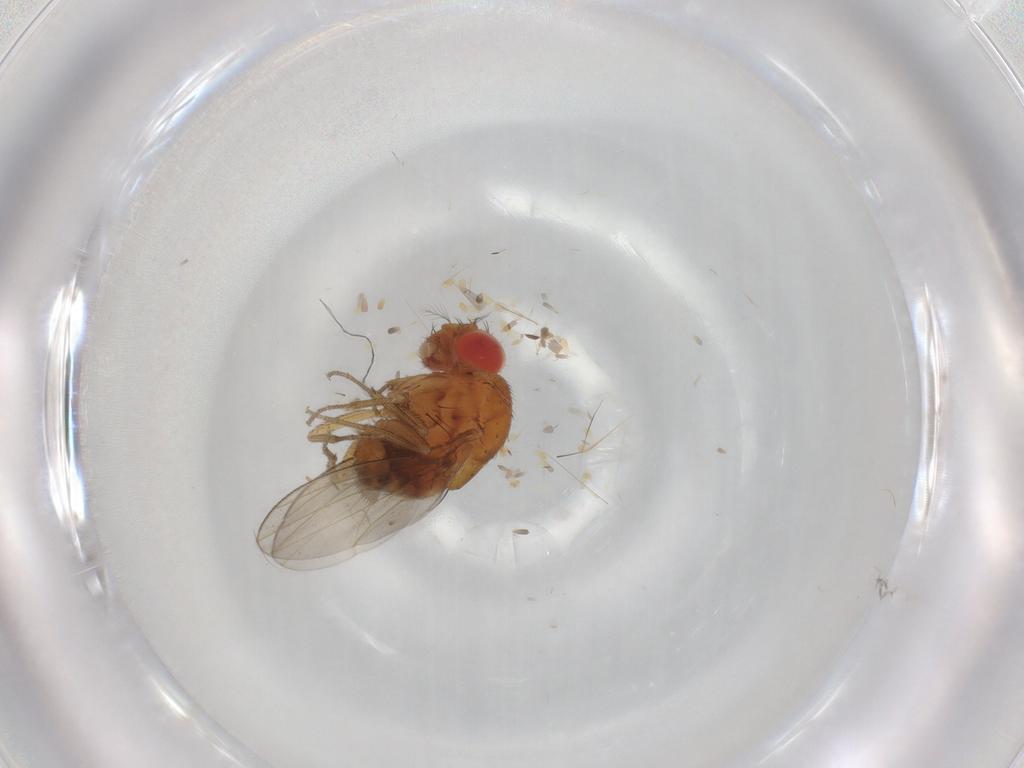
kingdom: Animalia
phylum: Arthropoda
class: Insecta
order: Diptera
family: Drosophilidae
